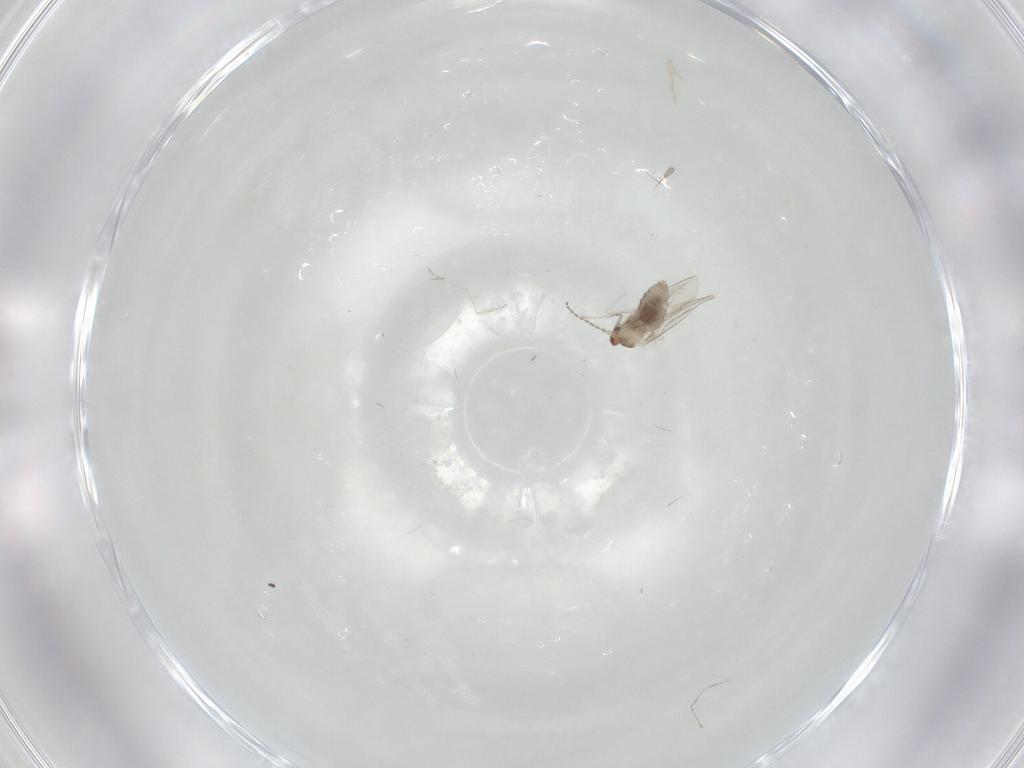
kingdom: Animalia
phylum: Arthropoda
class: Insecta
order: Diptera
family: Cecidomyiidae
